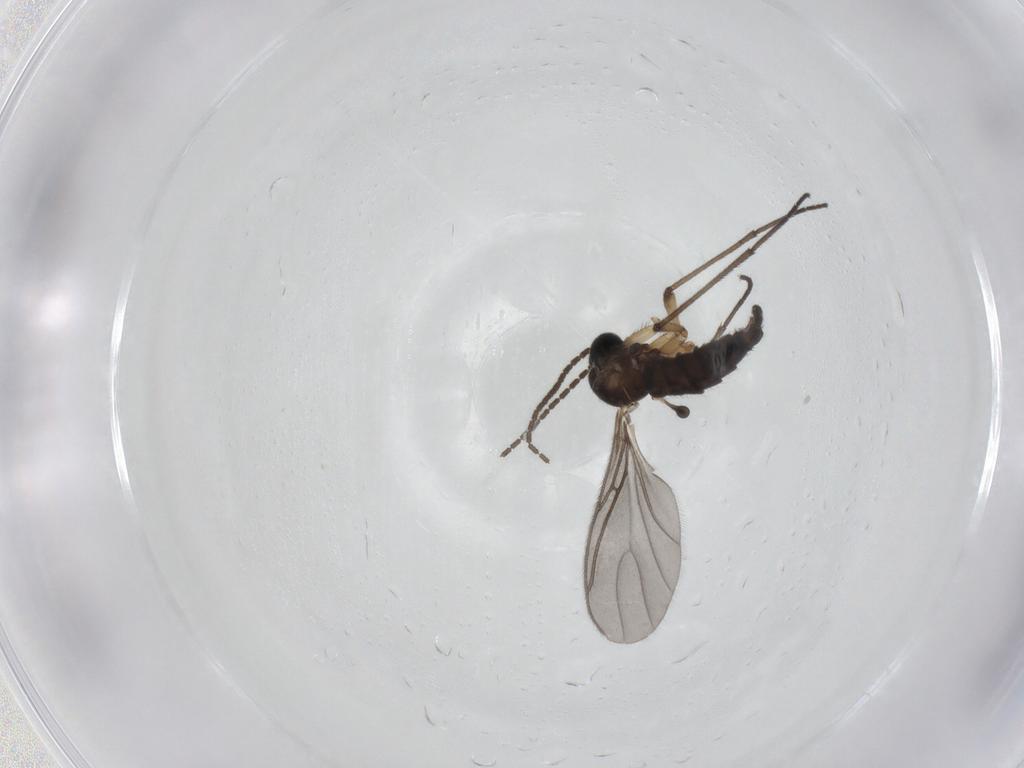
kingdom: Animalia
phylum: Arthropoda
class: Insecta
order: Diptera
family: Sciaridae
